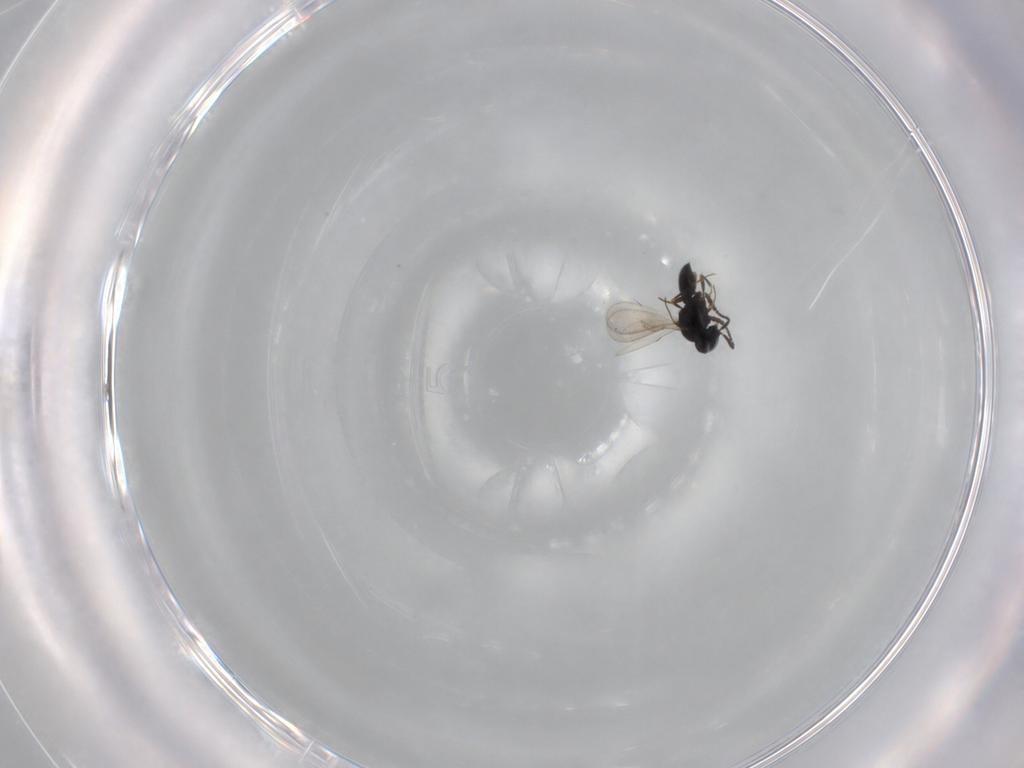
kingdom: Animalia
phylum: Arthropoda
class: Insecta
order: Hymenoptera
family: Scelionidae
